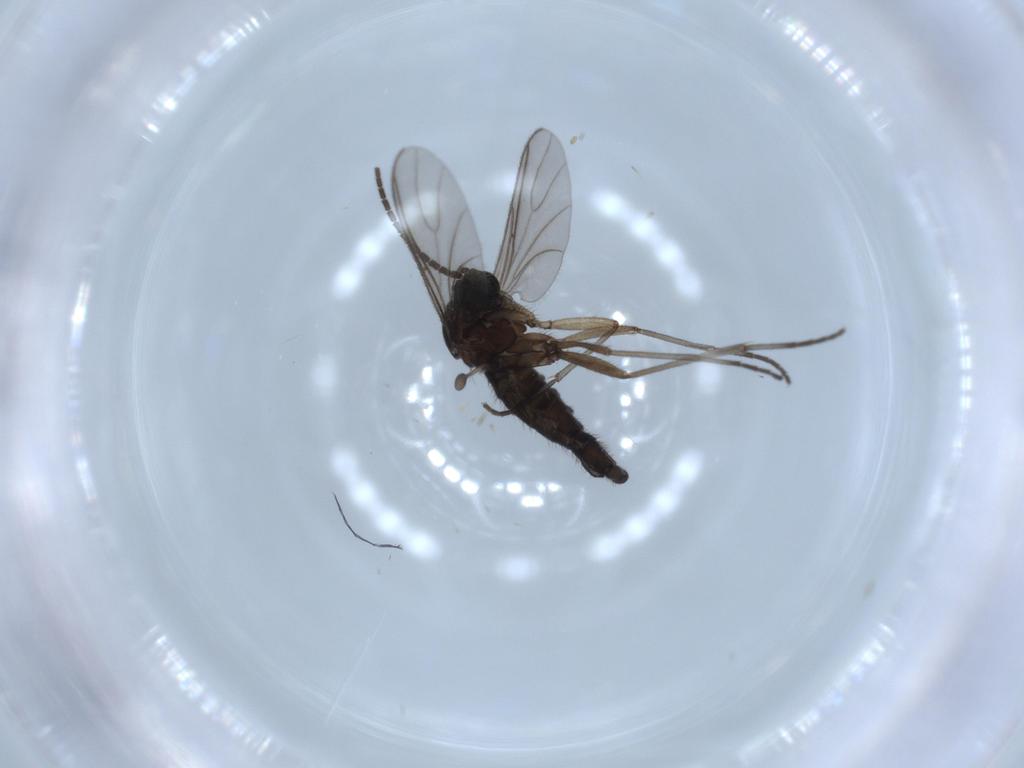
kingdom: Animalia
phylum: Arthropoda
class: Insecta
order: Diptera
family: Sciaridae
